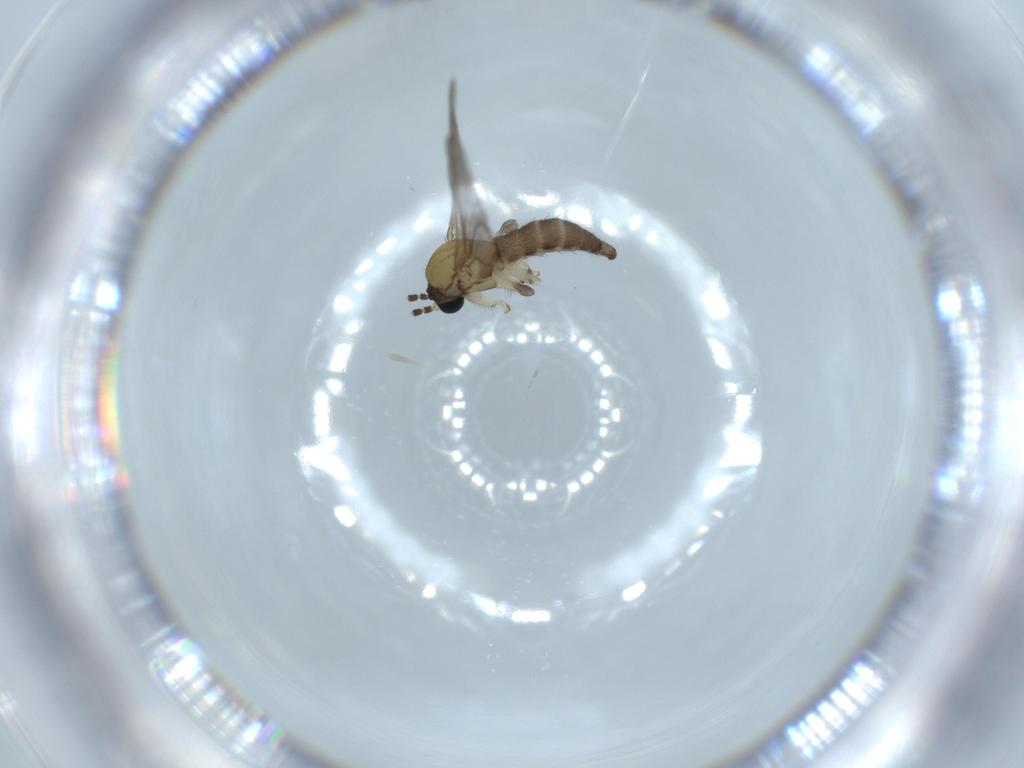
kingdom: Animalia
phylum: Arthropoda
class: Insecta
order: Diptera
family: Sciaridae
